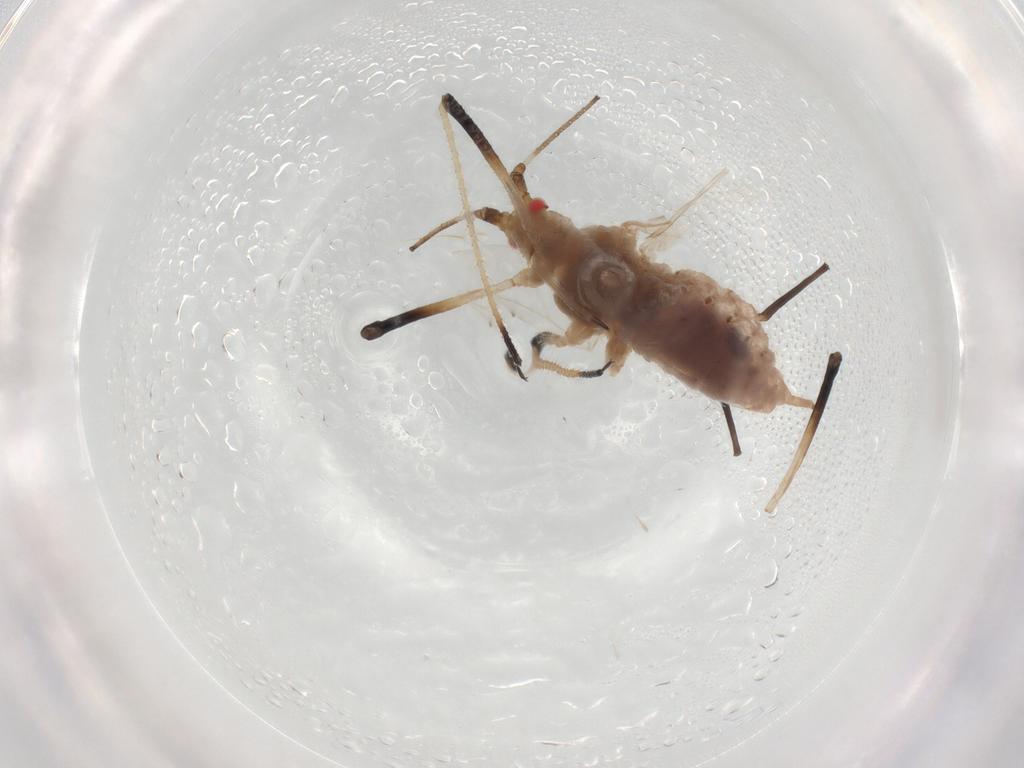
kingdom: Animalia
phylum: Arthropoda
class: Insecta
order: Hemiptera
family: Aphididae
